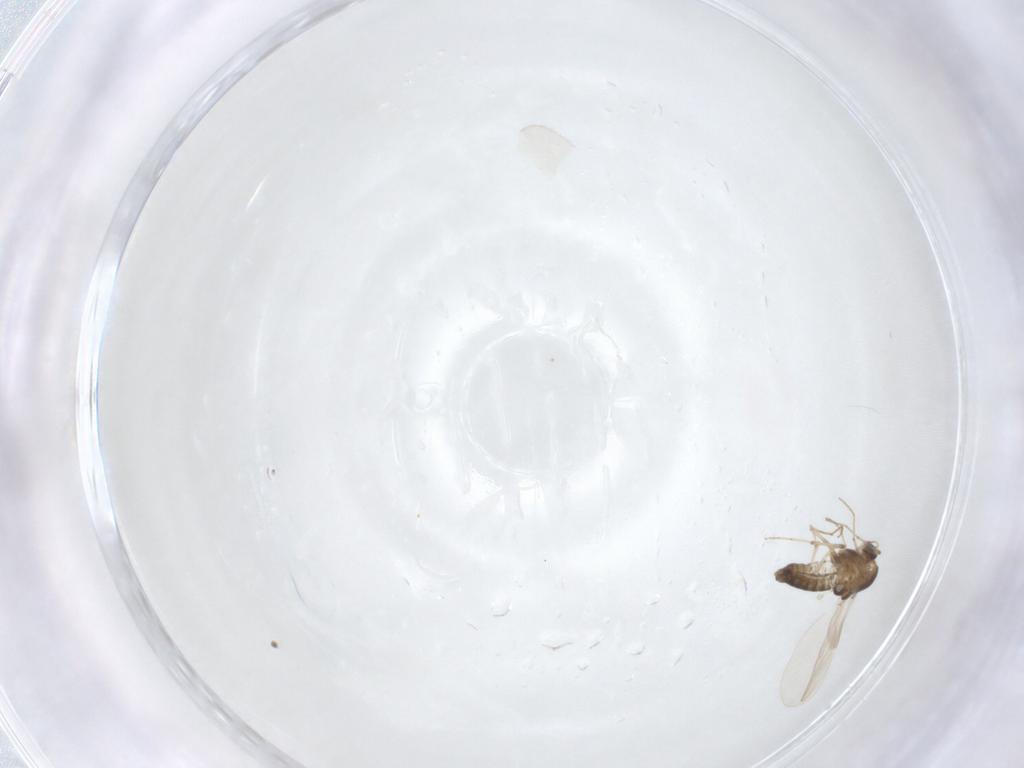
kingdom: Animalia
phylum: Arthropoda
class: Insecta
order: Diptera
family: Chironomidae
